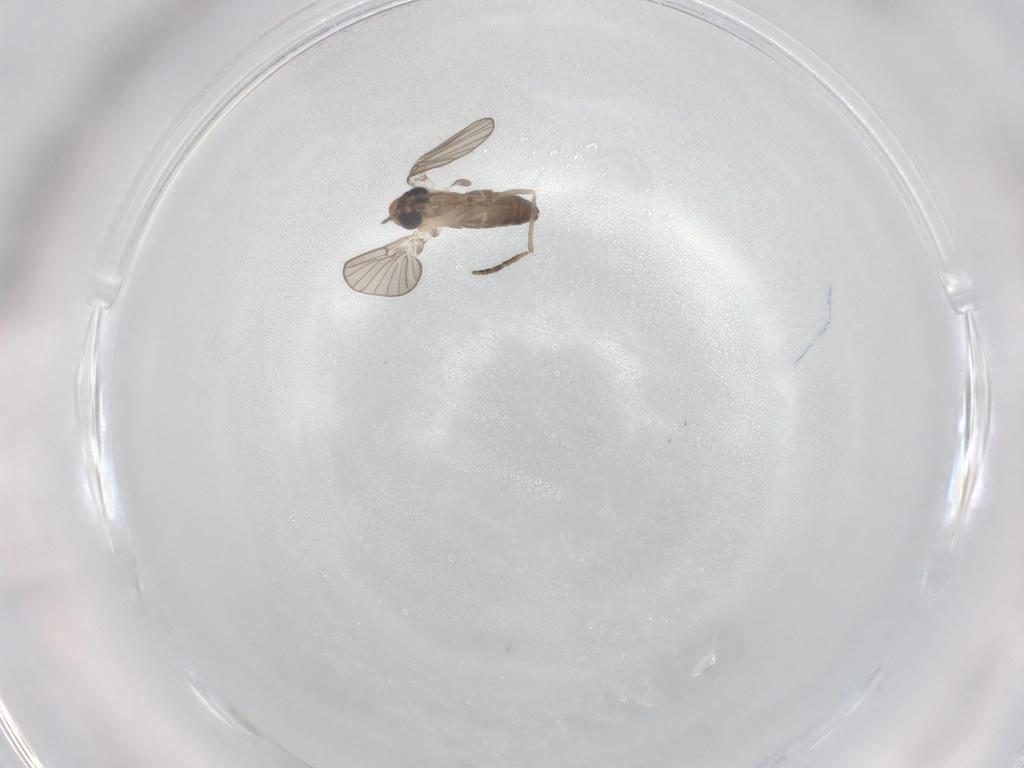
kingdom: Animalia
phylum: Arthropoda
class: Insecta
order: Diptera
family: Psychodidae
